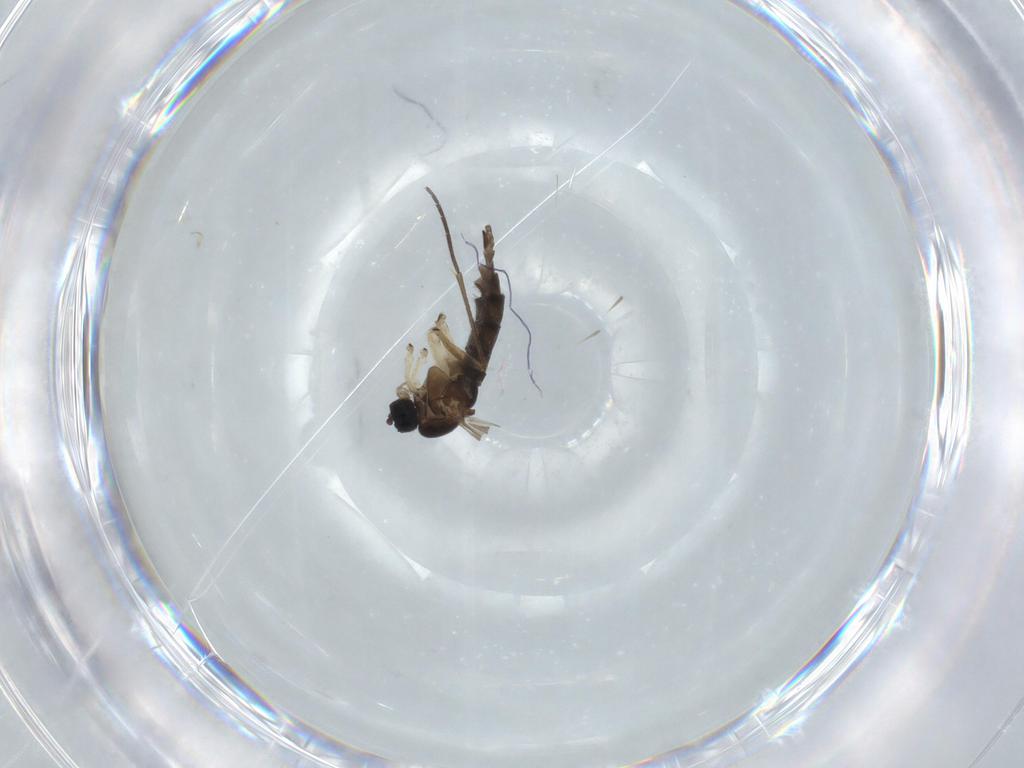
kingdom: Animalia
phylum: Arthropoda
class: Insecta
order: Diptera
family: Sciaridae
